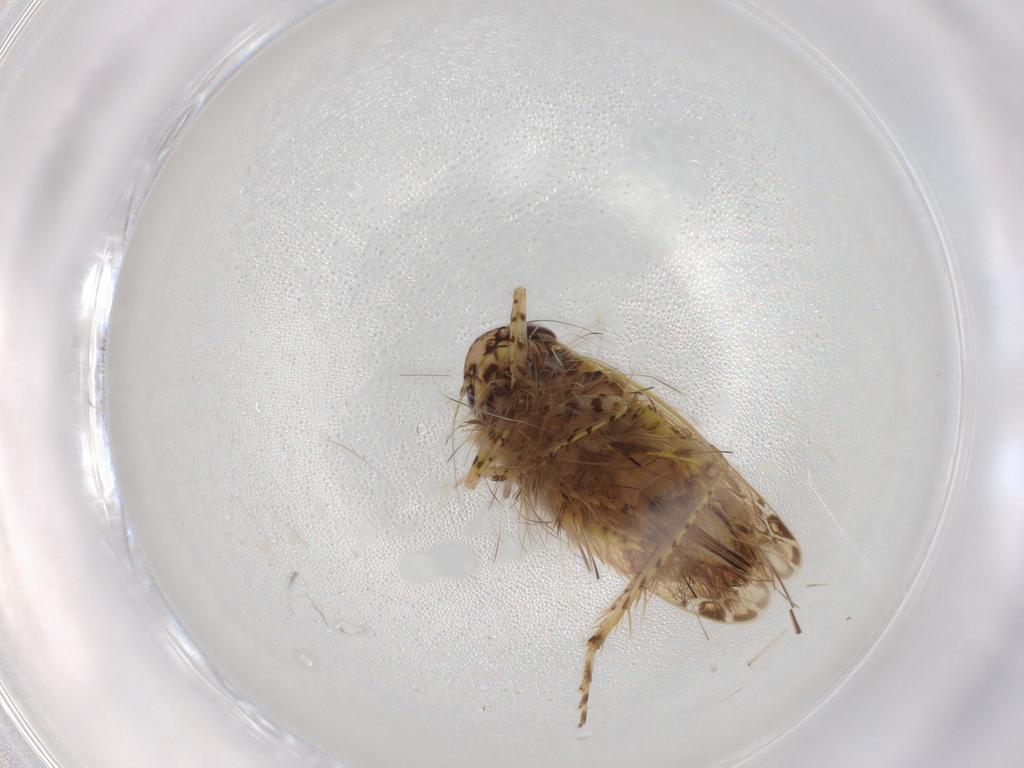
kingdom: Animalia
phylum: Arthropoda
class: Insecta
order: Hemiptera
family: Cicadellidae
